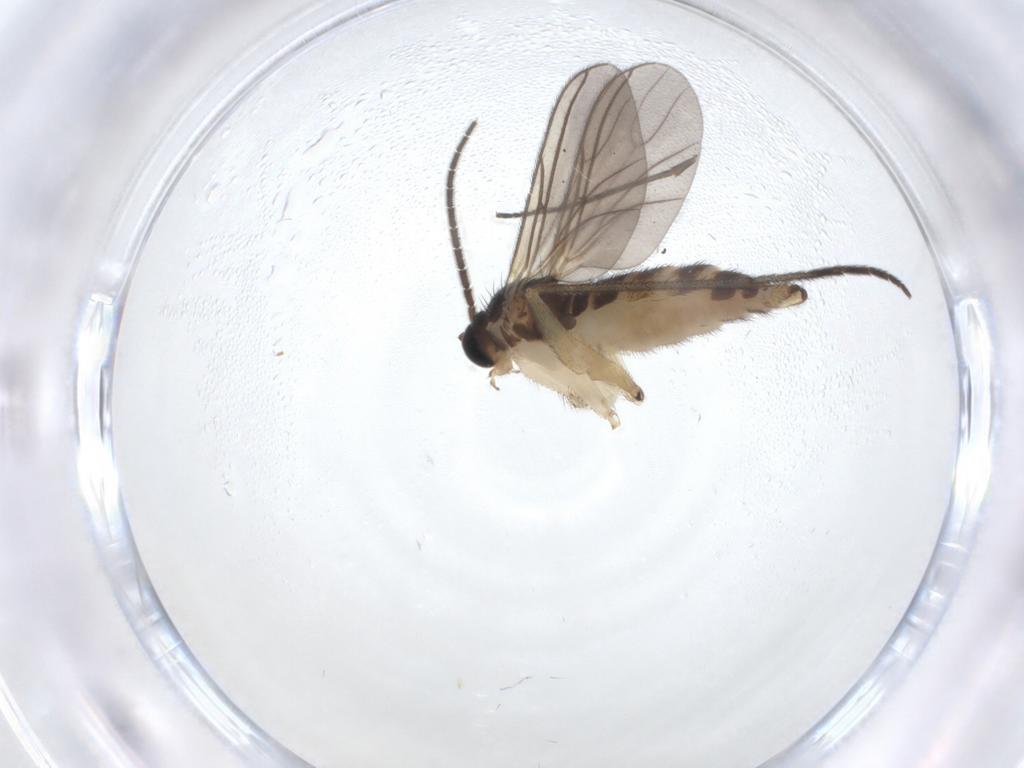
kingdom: Animalia
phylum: Arthropoda
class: Insecta
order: Diptera
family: Sciaridae
